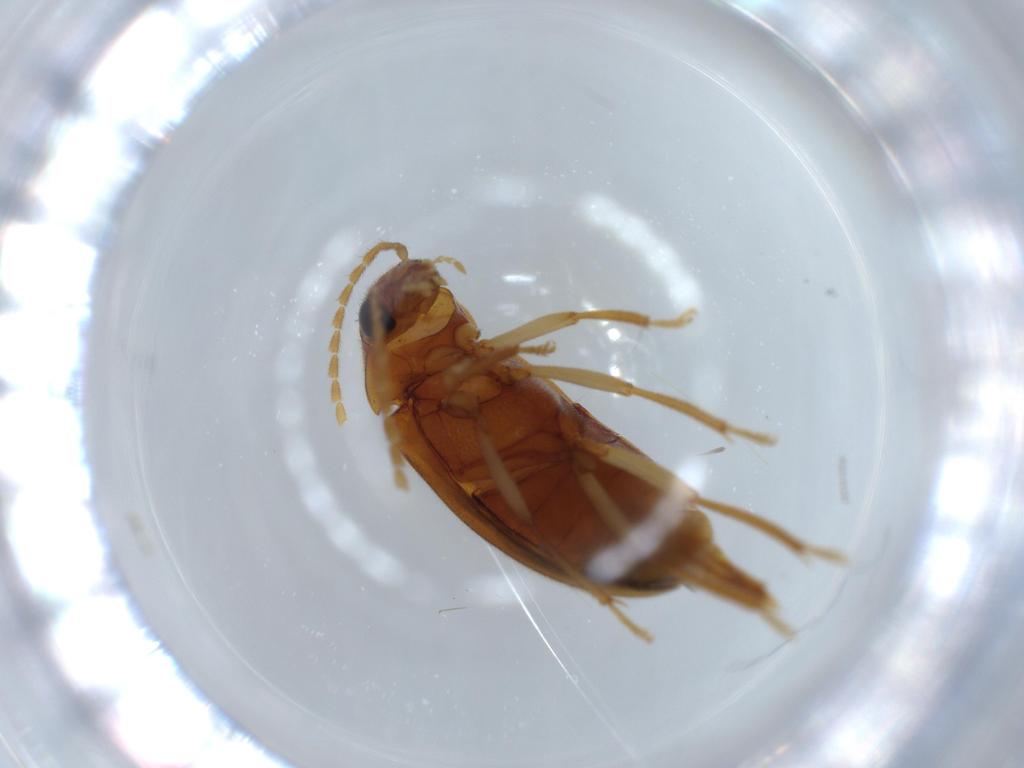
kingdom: Animalia
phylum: Arthropoda
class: Insecta
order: Coleoptera
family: Ptilodactylidae
